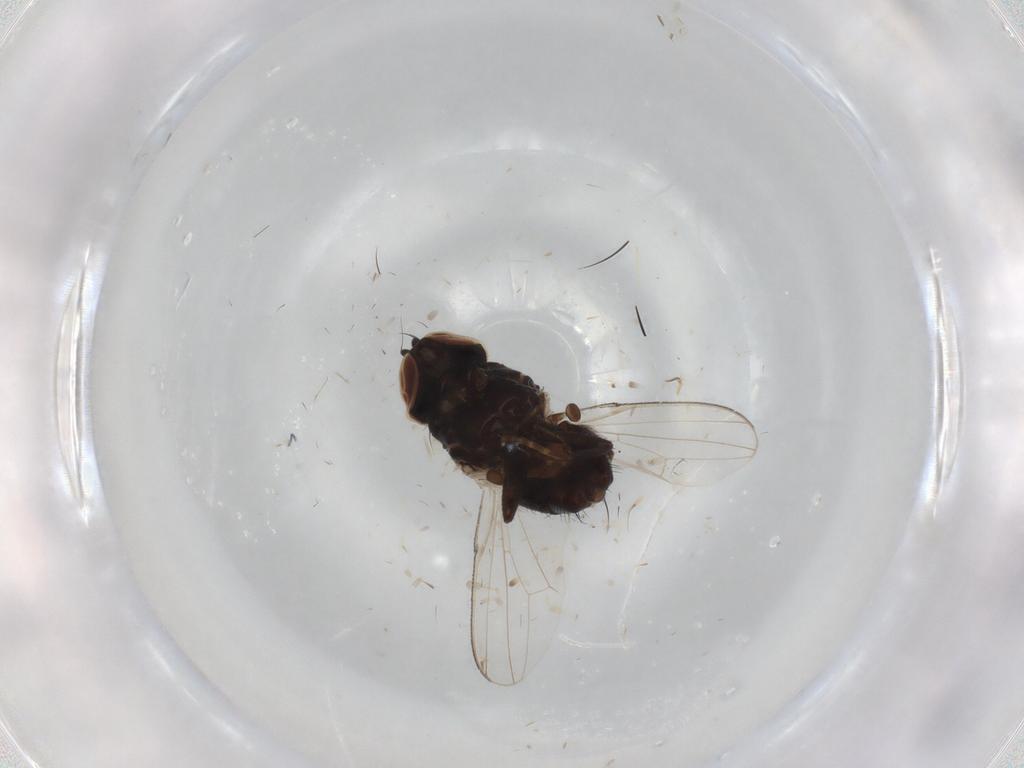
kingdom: Animalia
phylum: Arthropoda
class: Insecta
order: Diptera
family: Milichiidae
